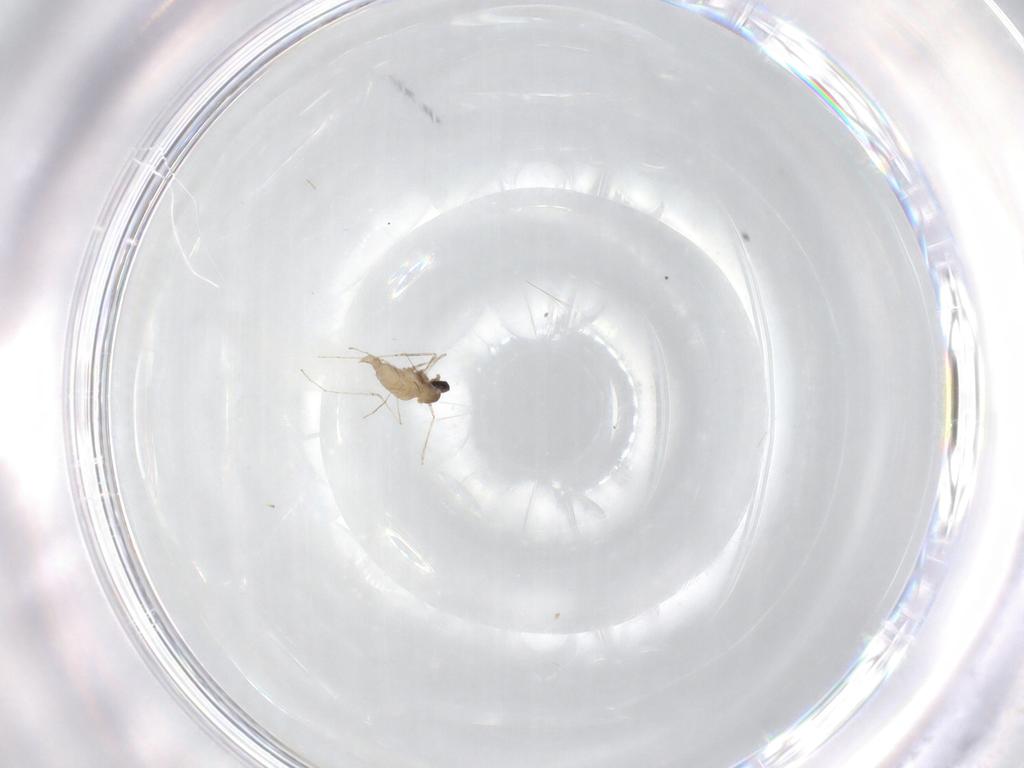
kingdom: Animalia
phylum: Arthropoda
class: Insecta
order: Diptera
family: Cecidomyiidae
